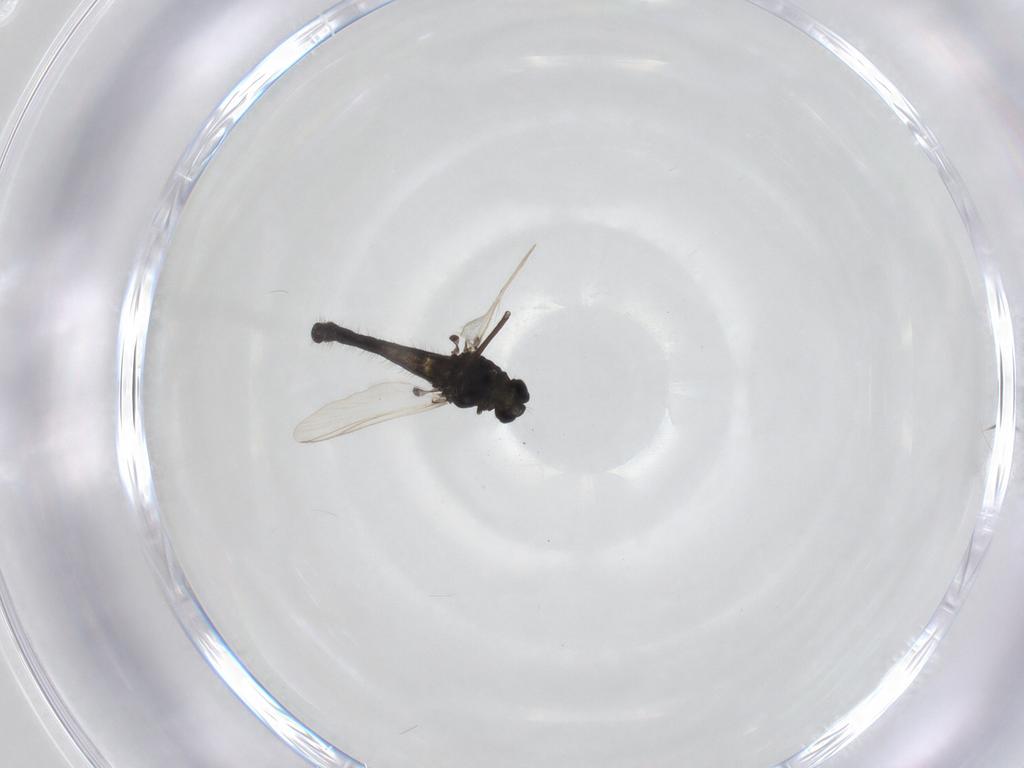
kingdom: Animalia
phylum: Arthropoda
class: Insecta
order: Diptera
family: Chironomidae
